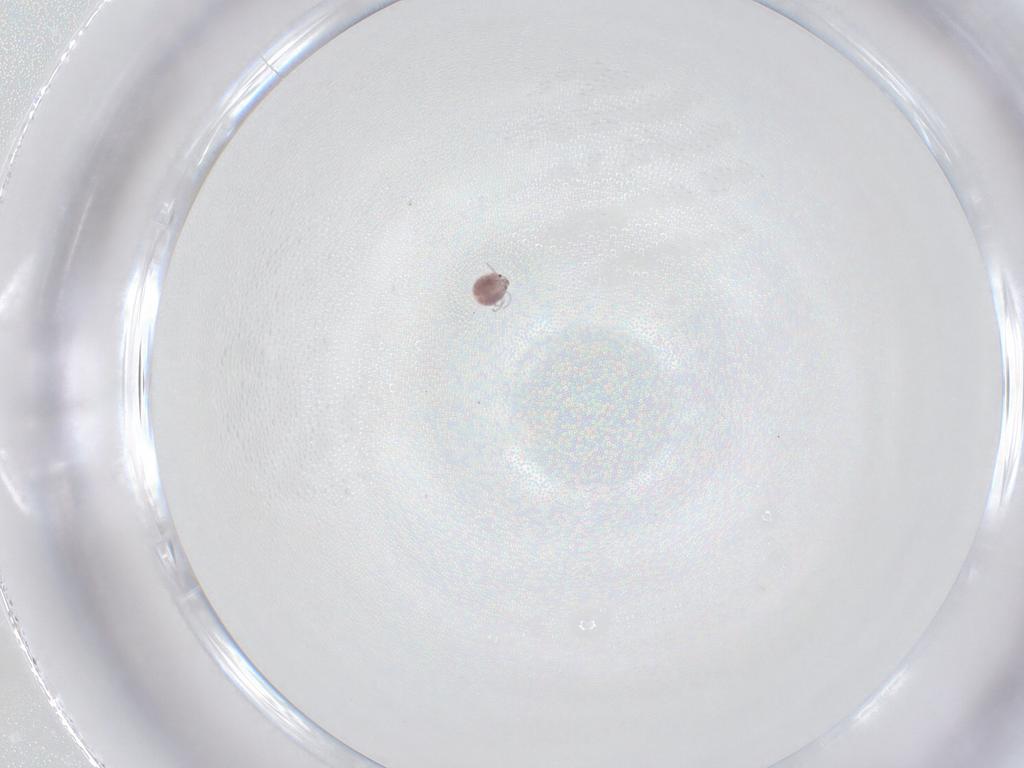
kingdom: Animalia
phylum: Arthropoda
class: Arachnida
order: Trombidiformes
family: Pionidae
